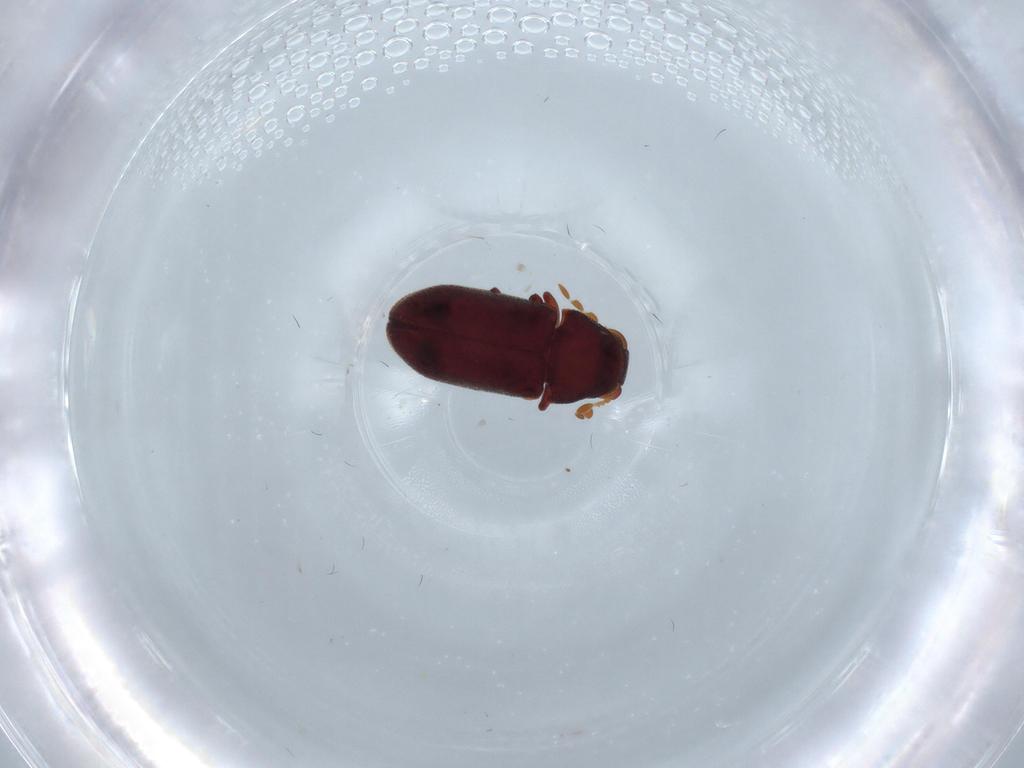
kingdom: Animalia
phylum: Arthropoda
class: Insecta
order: Coleoptera
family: Ptinidae
